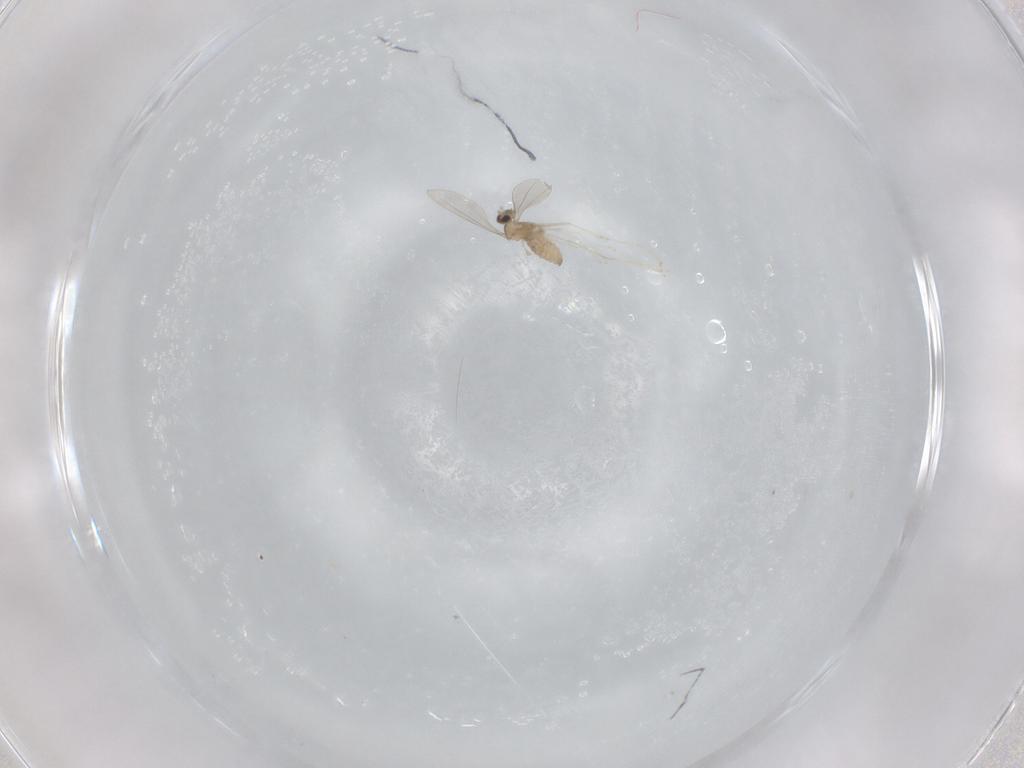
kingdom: Animalia
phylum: Arthropoda
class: Insecta
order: Diptera
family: Cecidomyiidae
